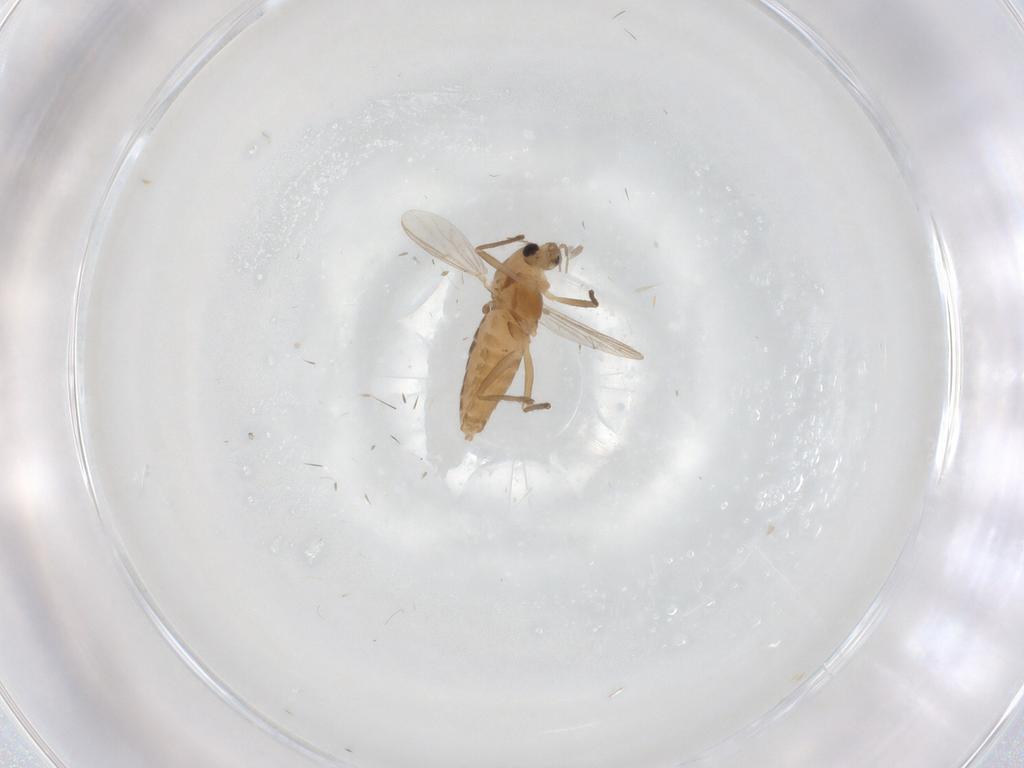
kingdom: Animalia
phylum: Arthropoda
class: Insecta
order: Diptera
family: Chironomidae
